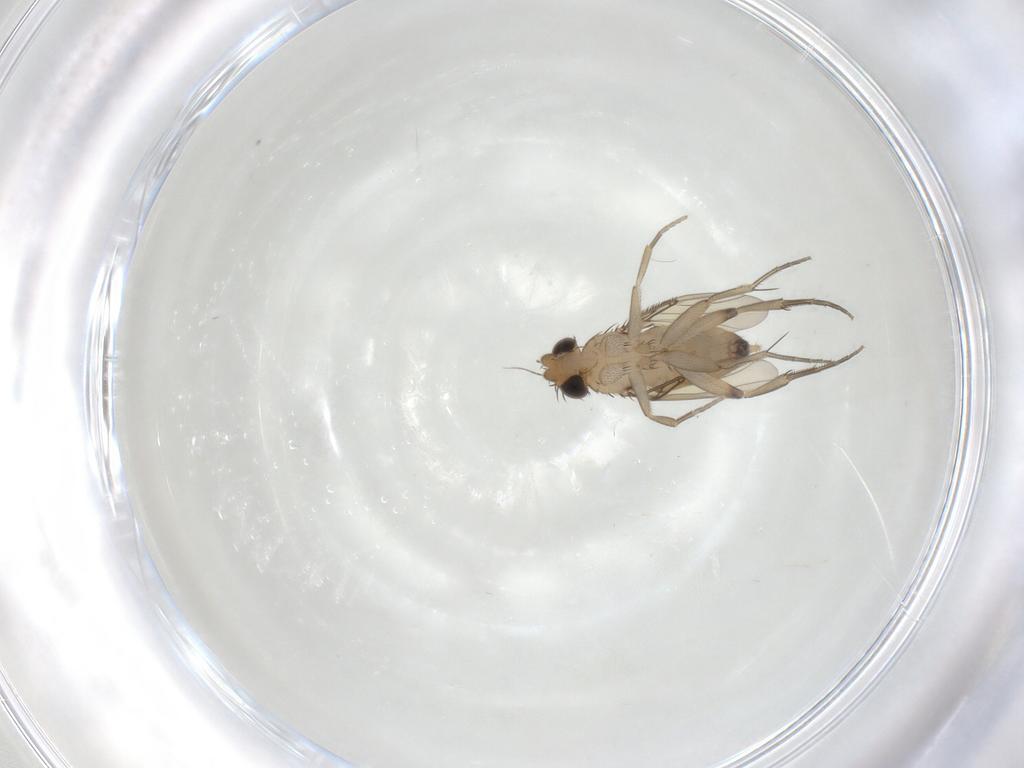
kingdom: Animalia
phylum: Arthropoda
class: Insecta
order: Diptera
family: Phoridae
